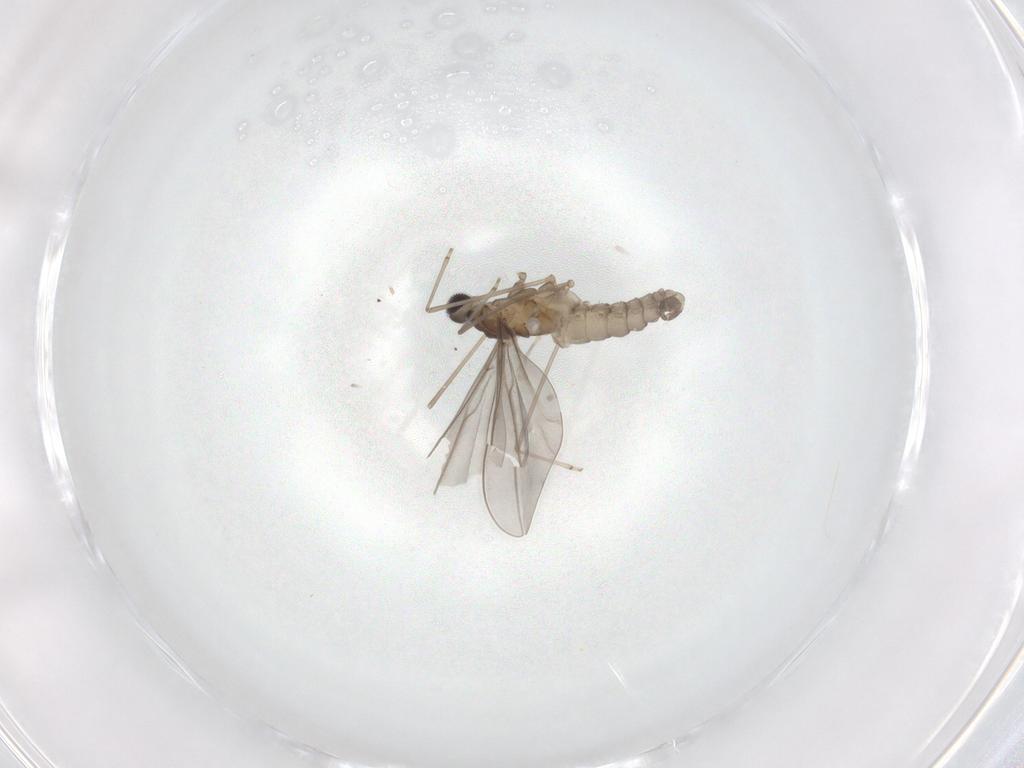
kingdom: Animalia
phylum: Arthropoda
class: Insecta
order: Diptera
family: Cecidomyiidae
